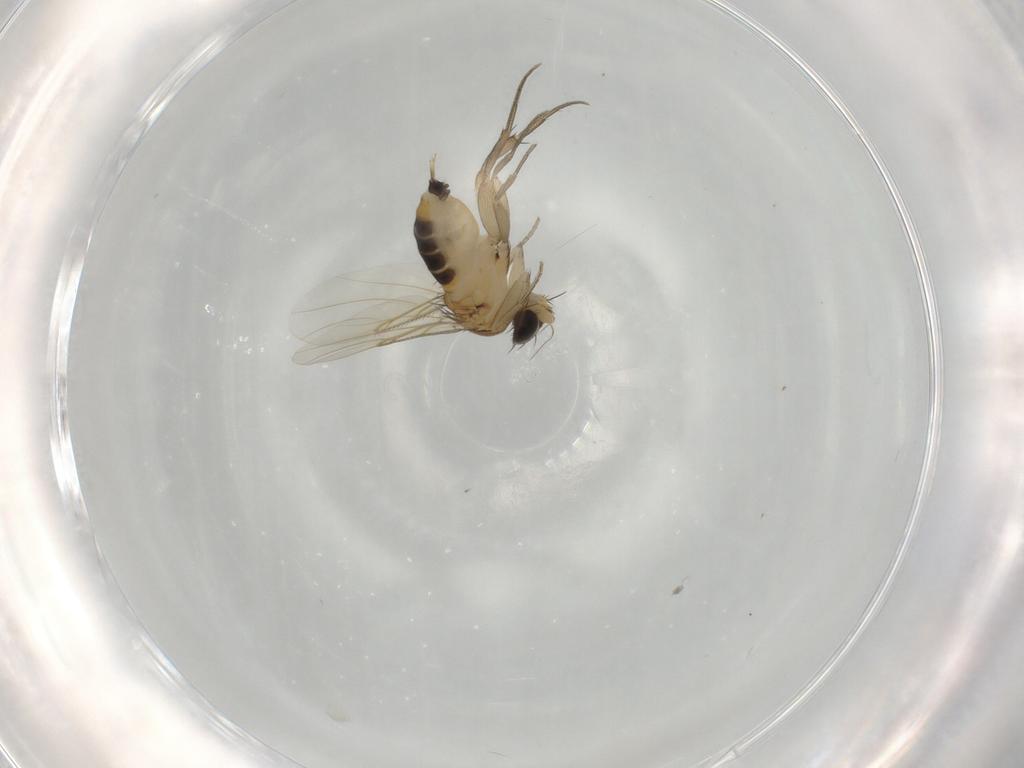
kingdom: Animalia
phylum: Arthropoda
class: Insecta
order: Diptera
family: Phoridae
